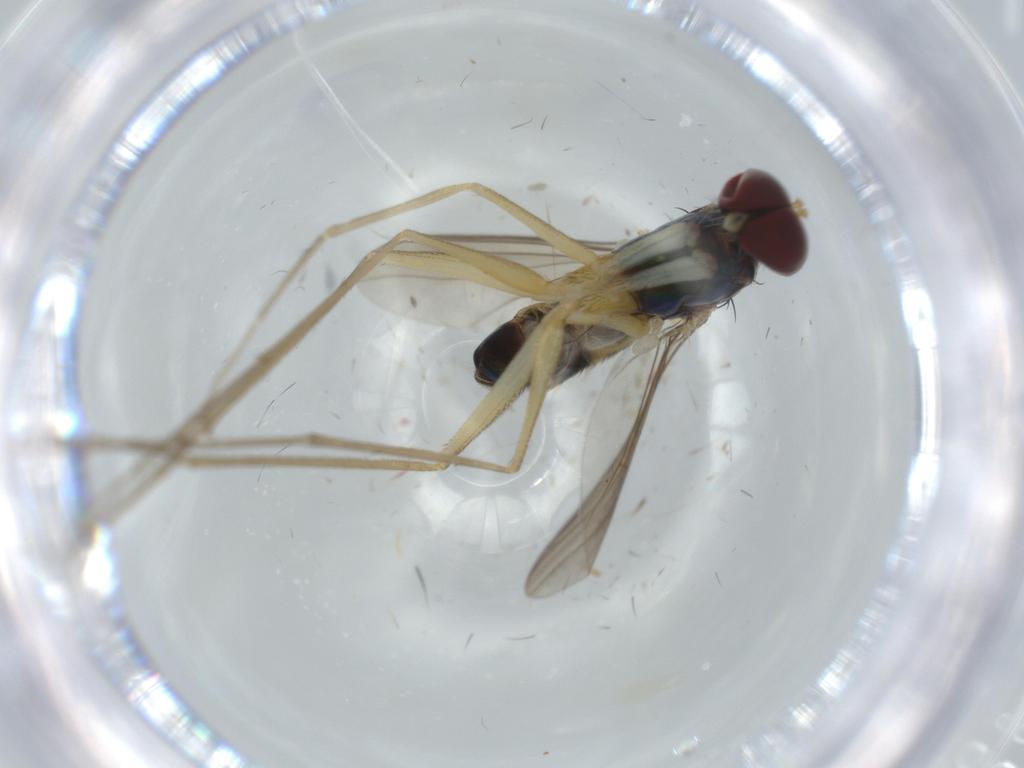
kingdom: Animalia
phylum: Arthropoda
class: Insecta
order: Diptera
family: Dolichopodidae
